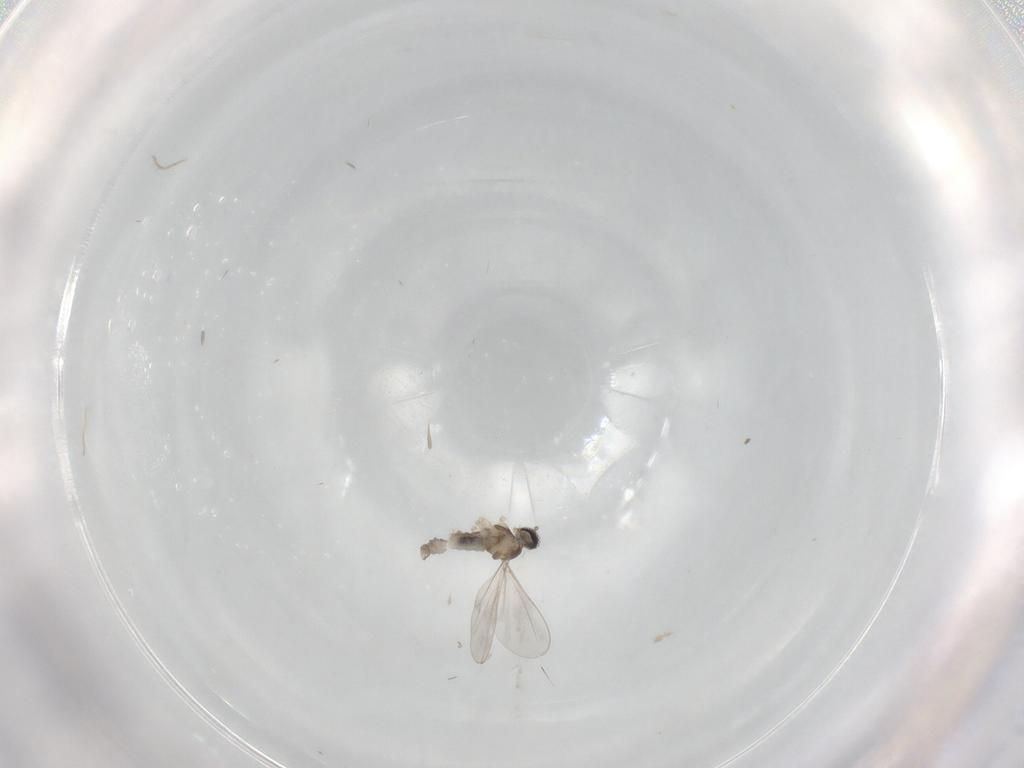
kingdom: Animalia
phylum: Arthropoda
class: Insecta
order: Diptera
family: Cecidomyiidae
